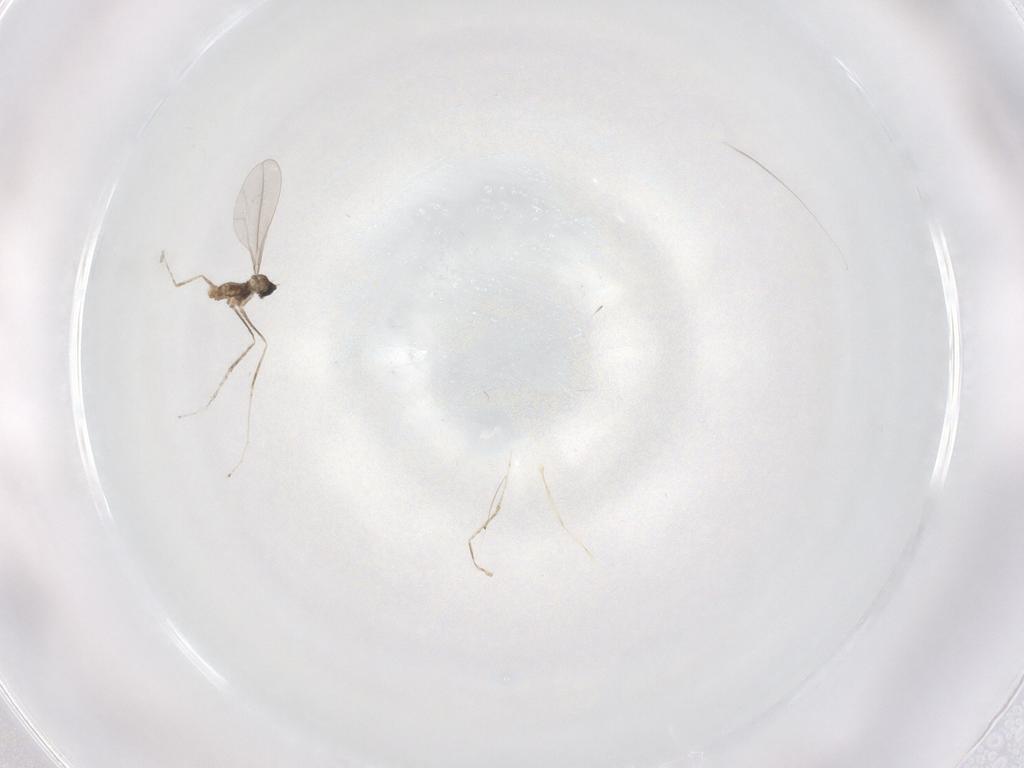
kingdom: Animalia
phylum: Arthropoda
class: Insecta
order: Diptera
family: Cecidomyiidae
